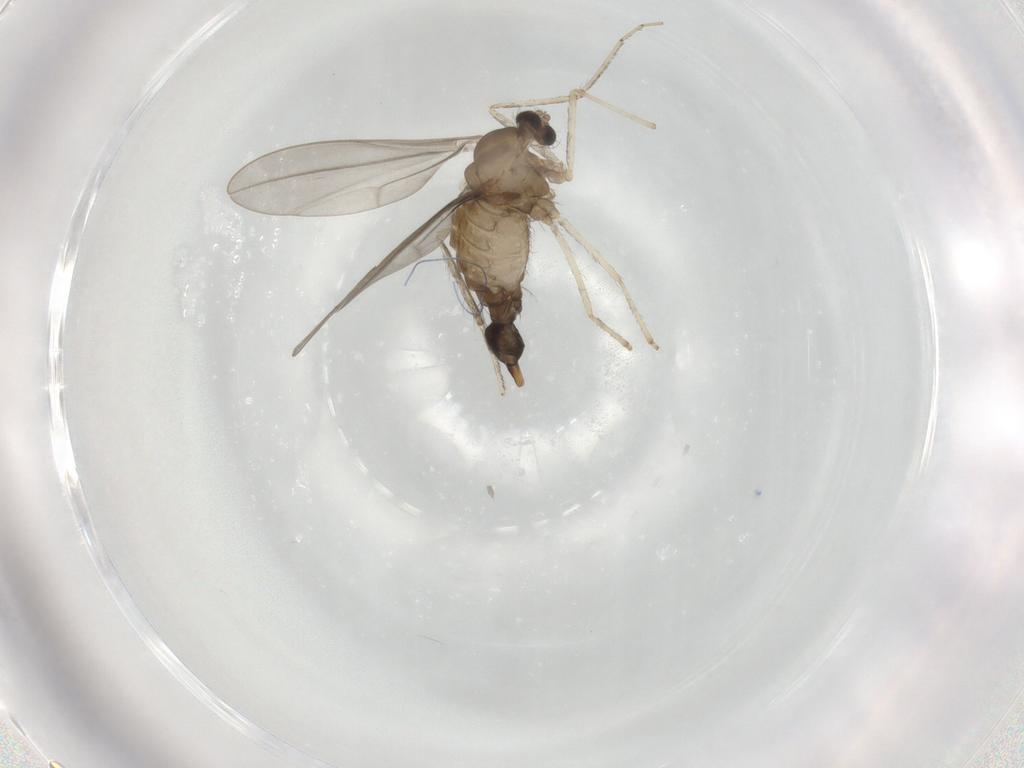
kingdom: Animalia
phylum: Arthropoda
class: Insecta
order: Diptera
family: Cecidomyiidae
